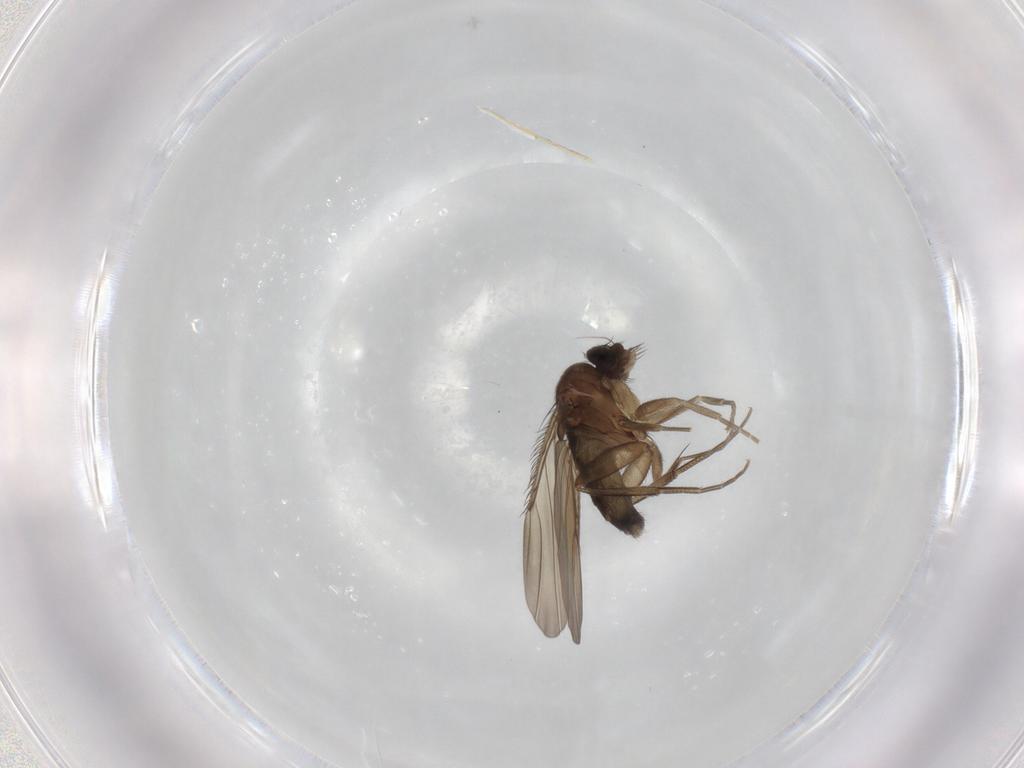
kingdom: Animalia
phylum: Arthropoda
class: Insecta
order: Diptera
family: Phoridae
